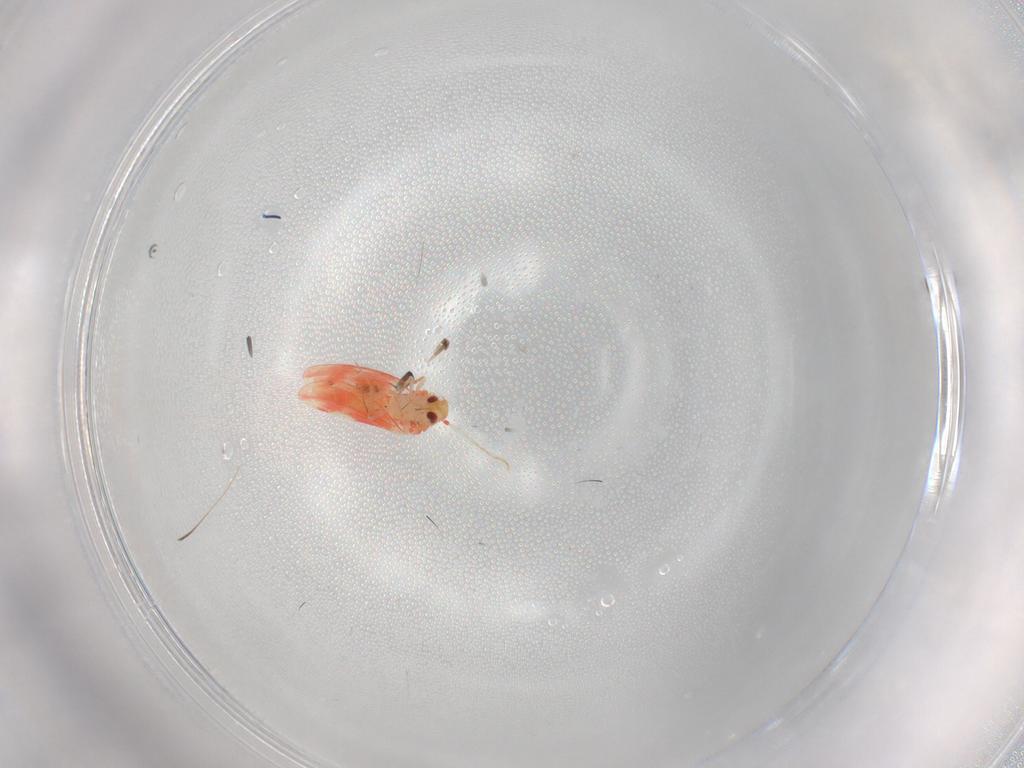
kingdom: Animalia
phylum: Arthropoda
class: Insecta
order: Hemiptera
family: Aleyrodidae
